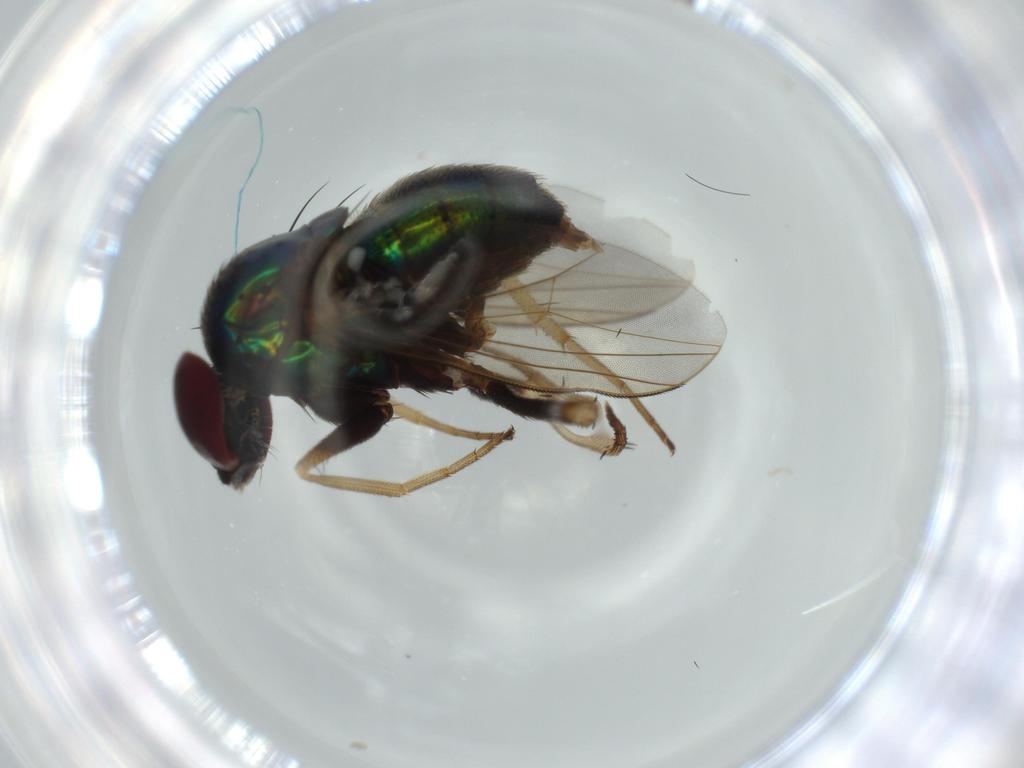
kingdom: Animalia
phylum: Arthropoda
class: Insecta
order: Diptera
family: Dolichopodidae
